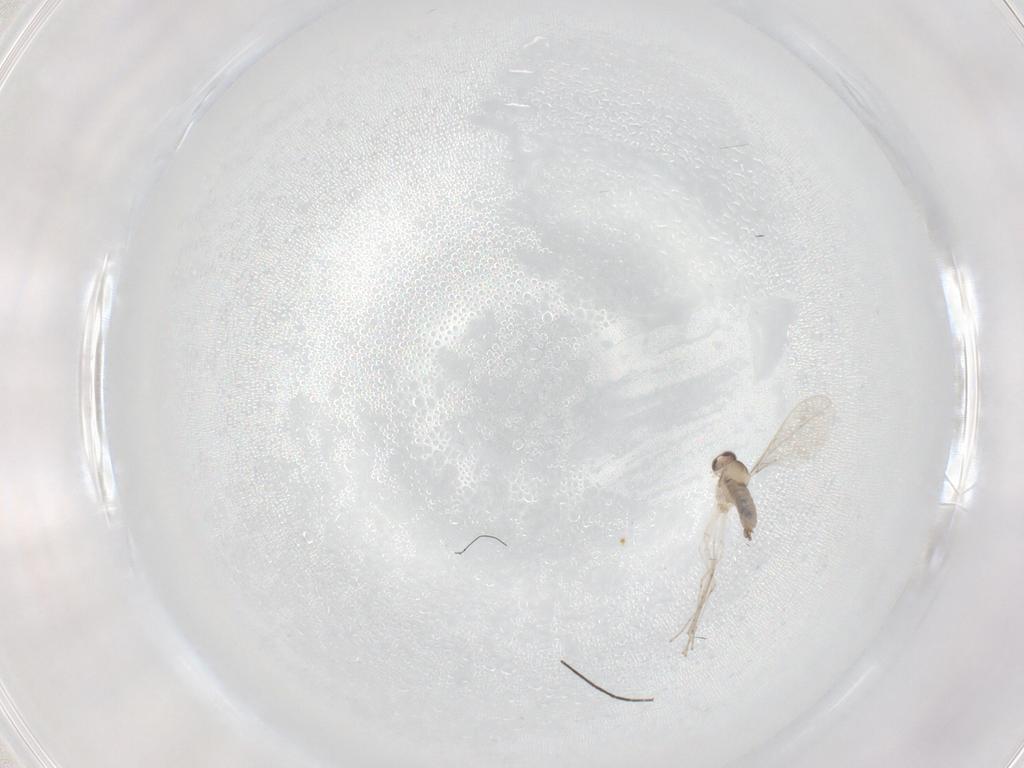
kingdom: Animalia
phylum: Arthropoda
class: Insecta
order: Diptera
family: Chironomidae
